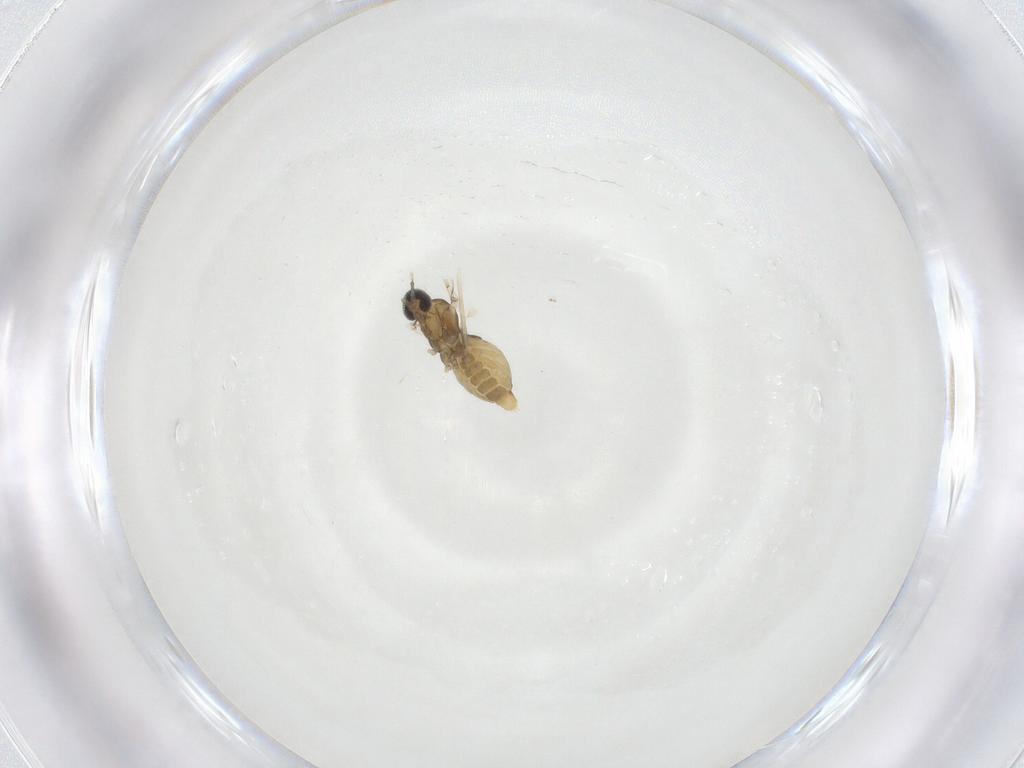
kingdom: Animalia
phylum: Arthropoda
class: Insecta
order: Diptera
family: Cecidomyiidae
